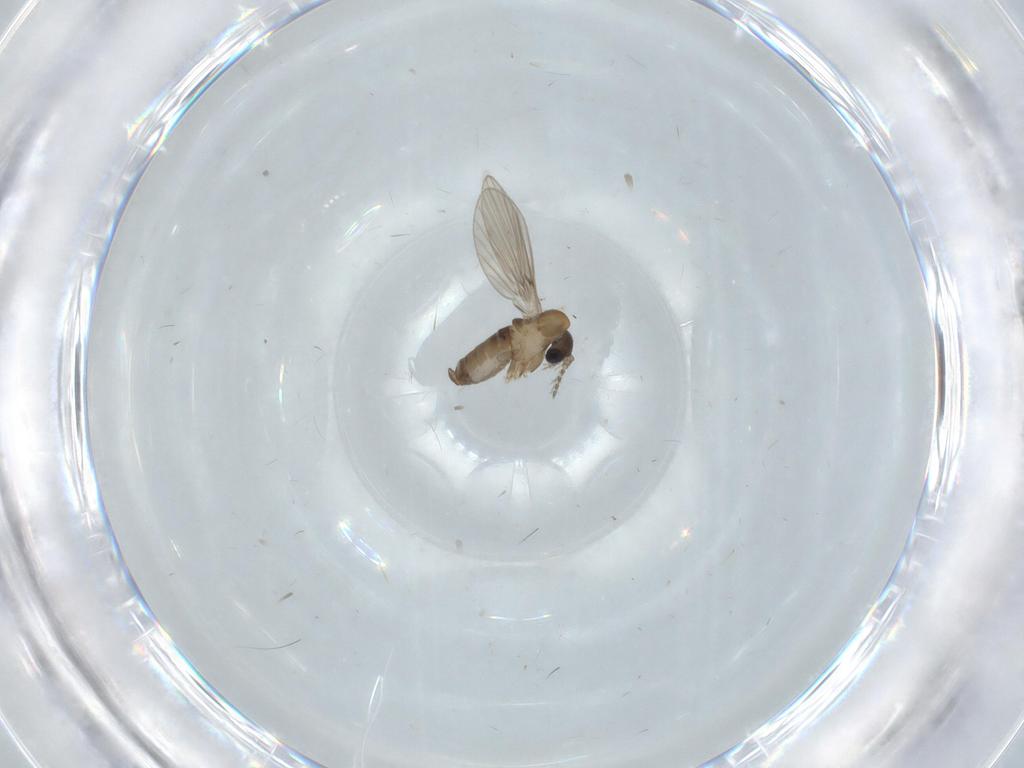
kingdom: Animalia
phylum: Arthropoda
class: Insecta
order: Diptera
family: Psychodidae
